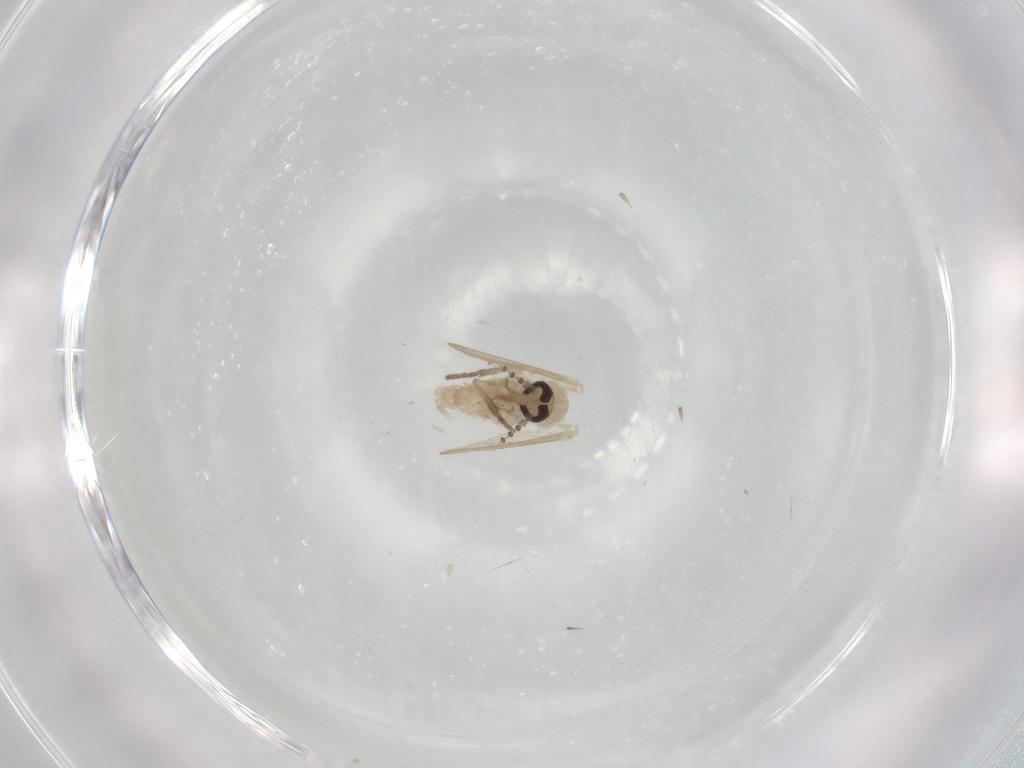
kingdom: Animalia
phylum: Arthropoda
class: Insecta
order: Diptera
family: Psychodidae
